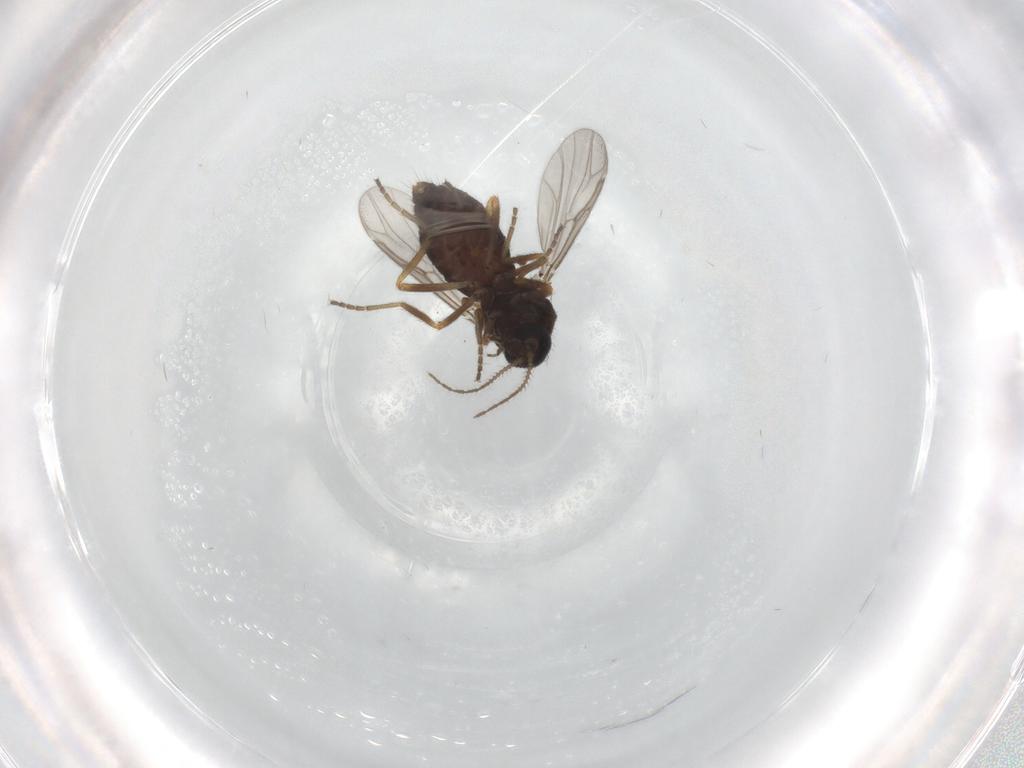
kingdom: Animalia
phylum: Arthropoda
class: Insecta
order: Diptera
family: Ceratopogonidae
